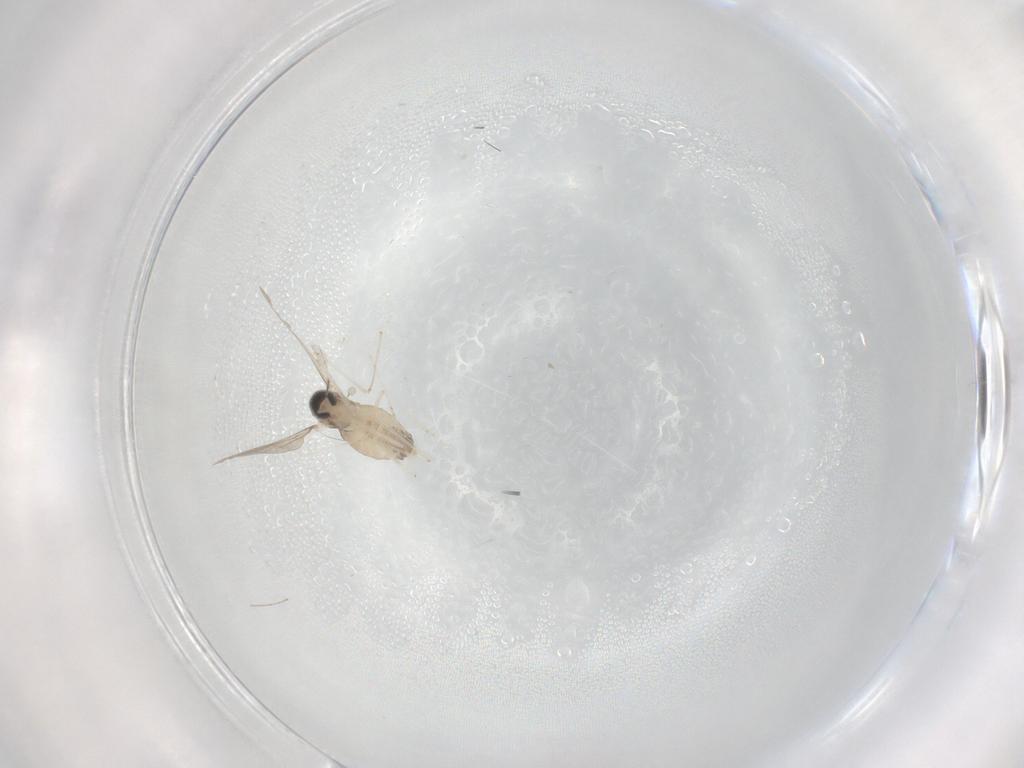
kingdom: Animalia
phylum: Arthropoda
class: Insecta
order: Diptera
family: Cecidomyiidae
